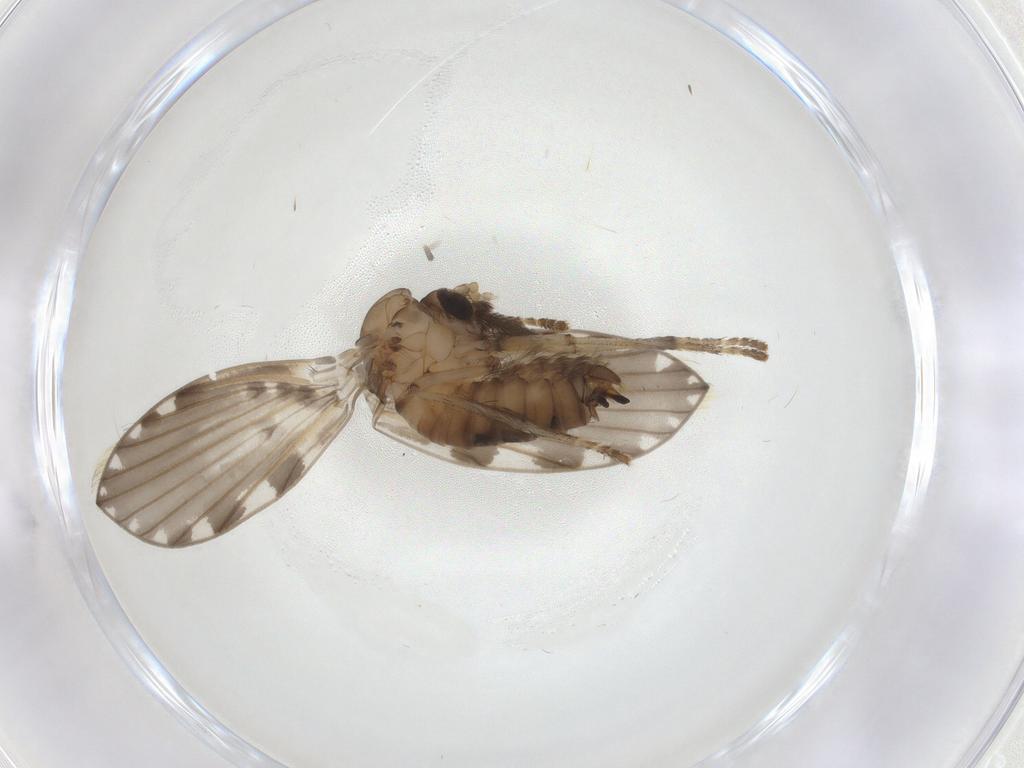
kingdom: Animalia
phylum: Arthropoda
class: Insecta
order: Diptera
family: Psychodidae
